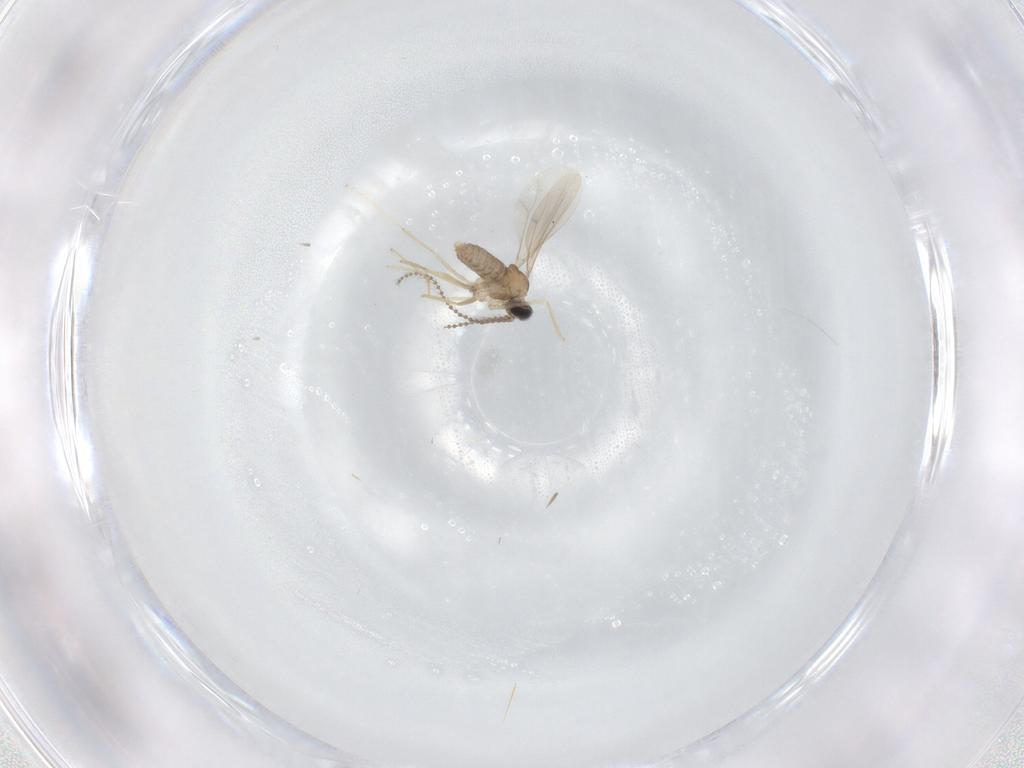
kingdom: Animalia
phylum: Arthropoda
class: Insecta
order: Diptera
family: Cecidomyiidae
